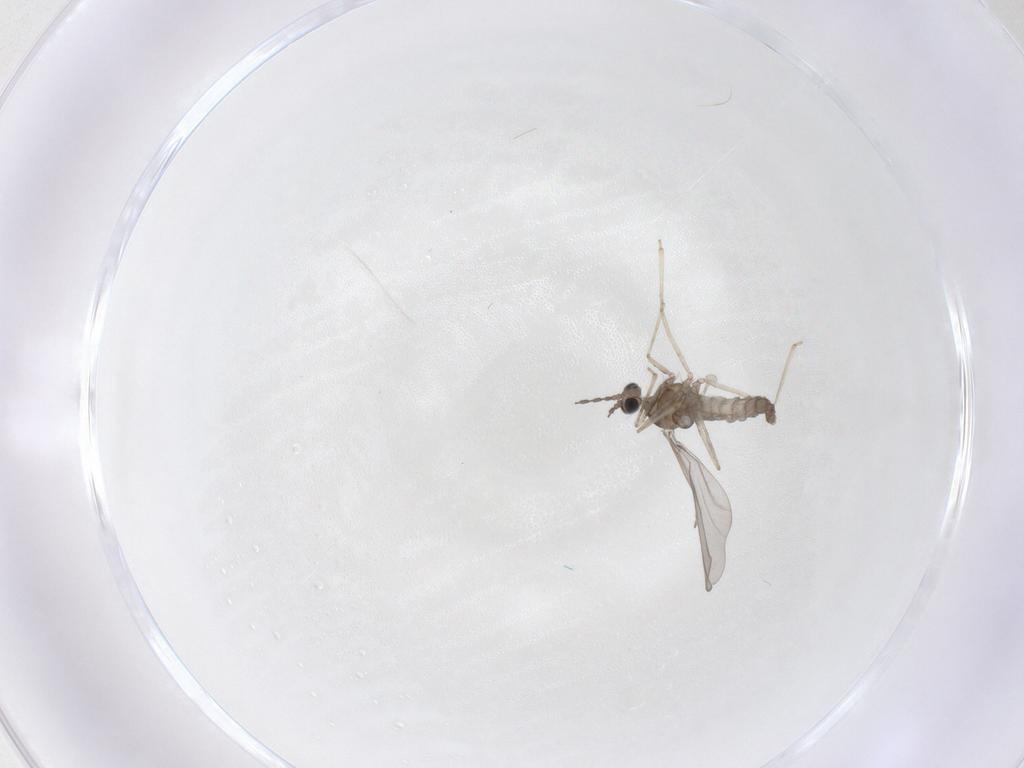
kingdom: Animalia
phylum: Arthropoda
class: Insecta
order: Diptera
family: Cecidomyiidae
